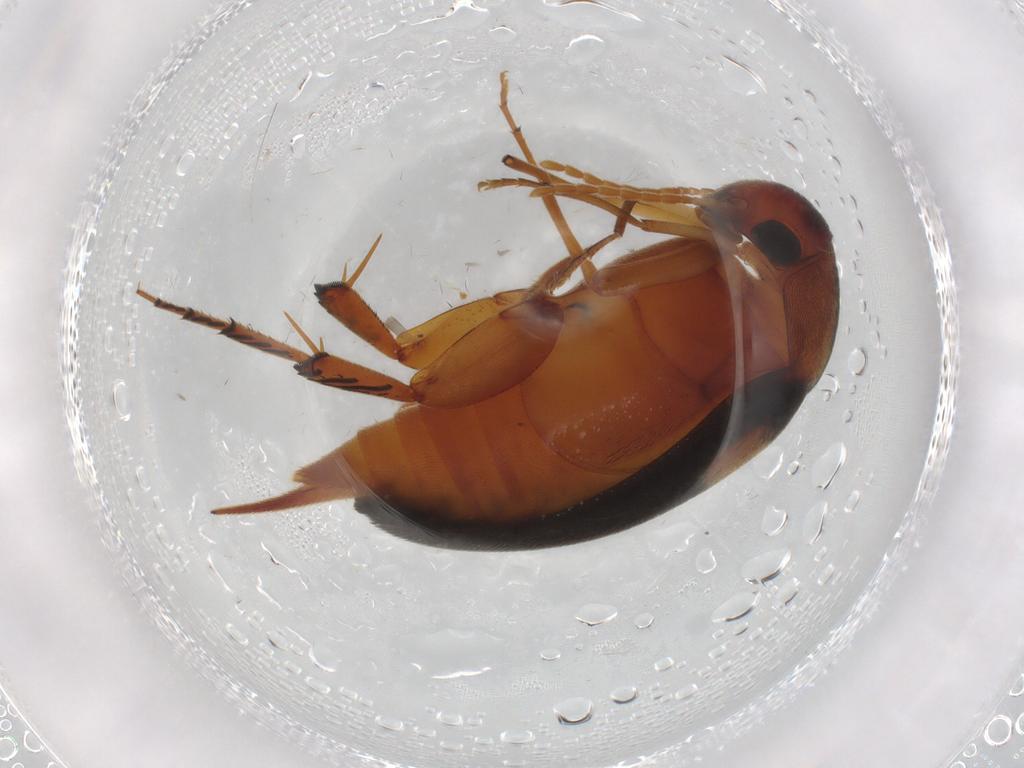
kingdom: Animalia
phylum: Arthropoda
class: Insecta
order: Coleoptera
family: Mordellidae
